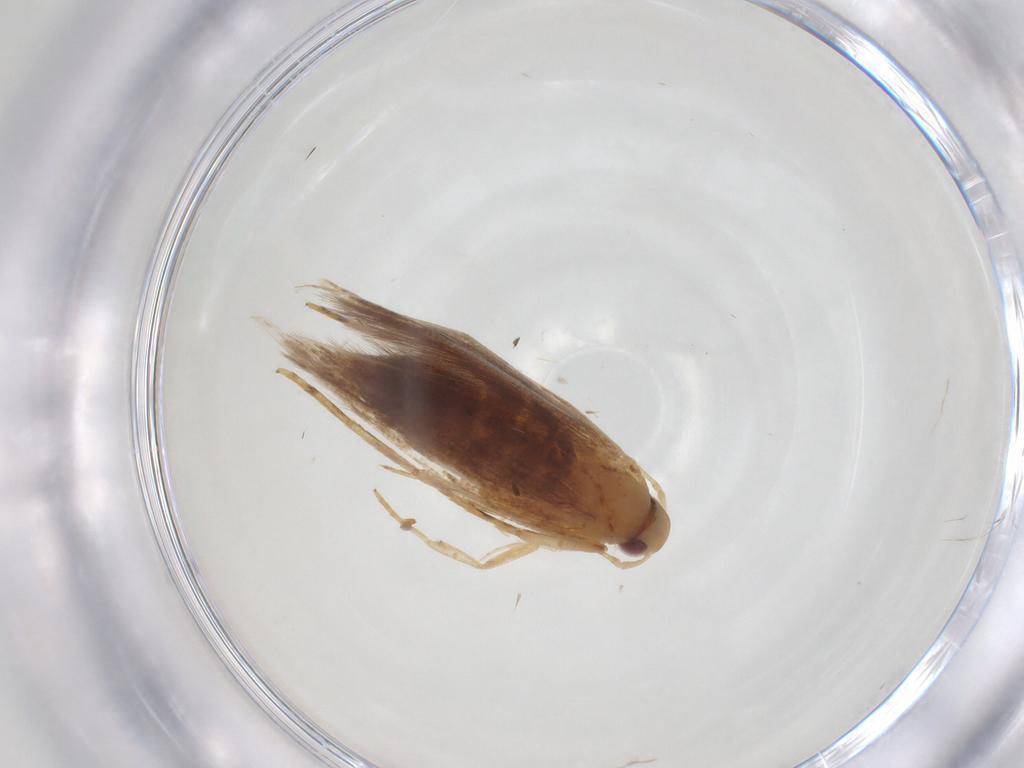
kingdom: Animalia
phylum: Arthropoda
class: Insecta
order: Lepidoptera
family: Cosmopterigidae
